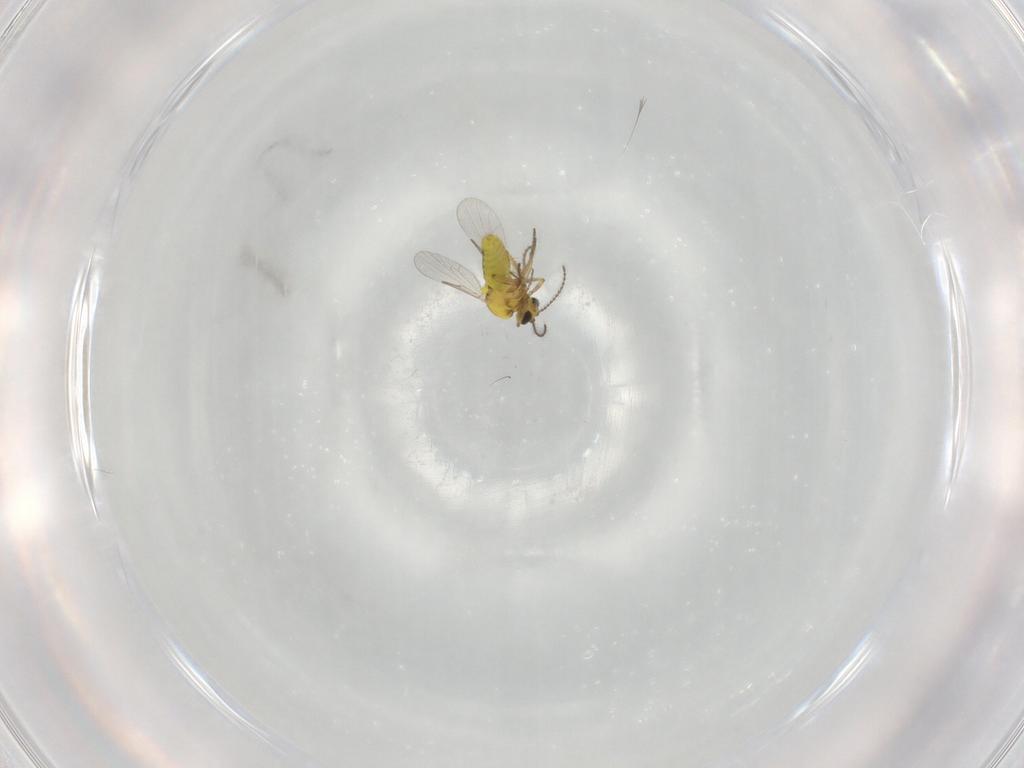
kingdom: Animalia
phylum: Arthropoda
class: Insecta
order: Diptera
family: Ceratopogonidae
